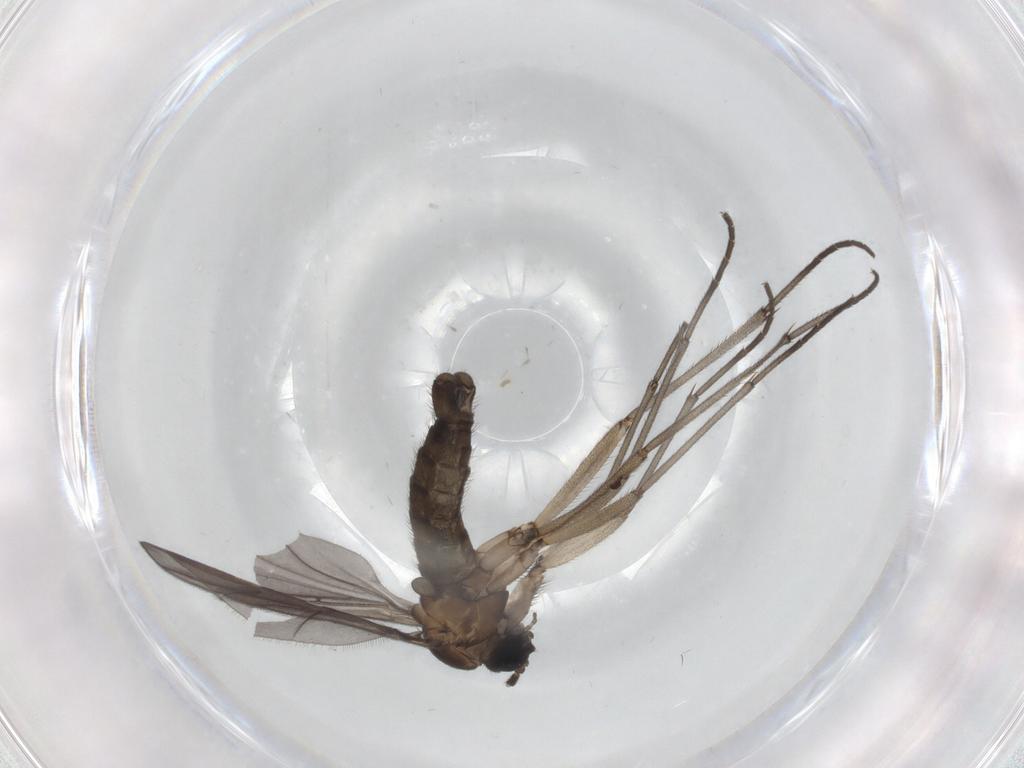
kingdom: Animalia
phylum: Arthropoda
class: Insecta
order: Diptera
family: Sciaridae
